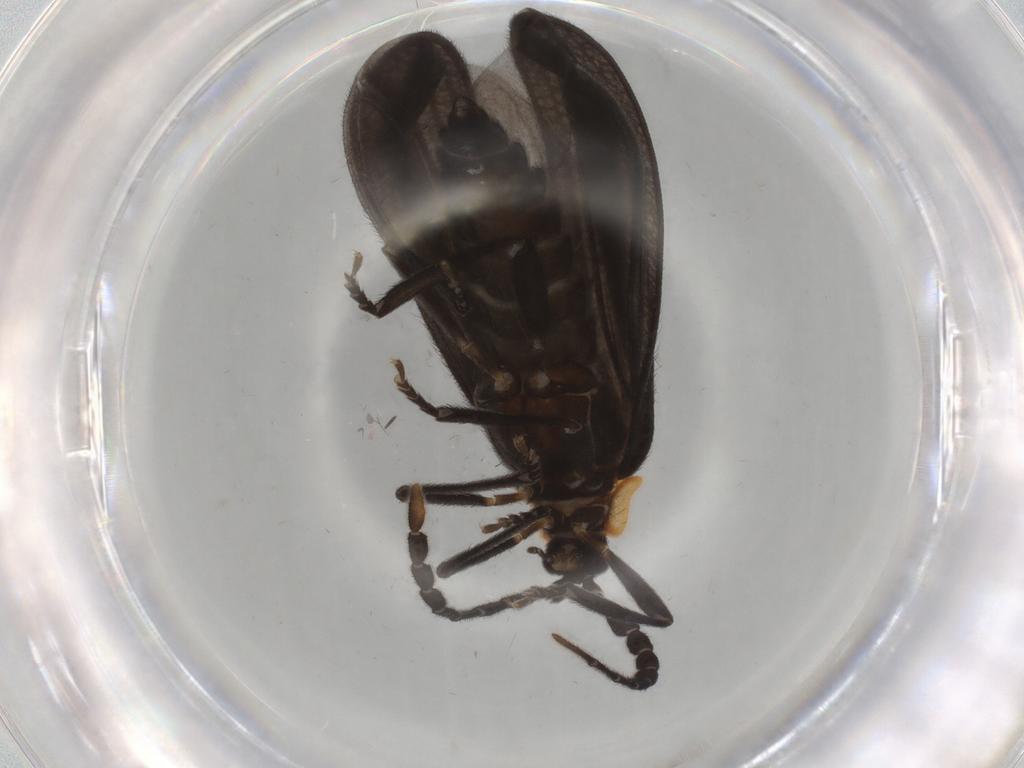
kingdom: Animalia
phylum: Arthropoda
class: Insecta
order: Coleoptera
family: Lycidae
